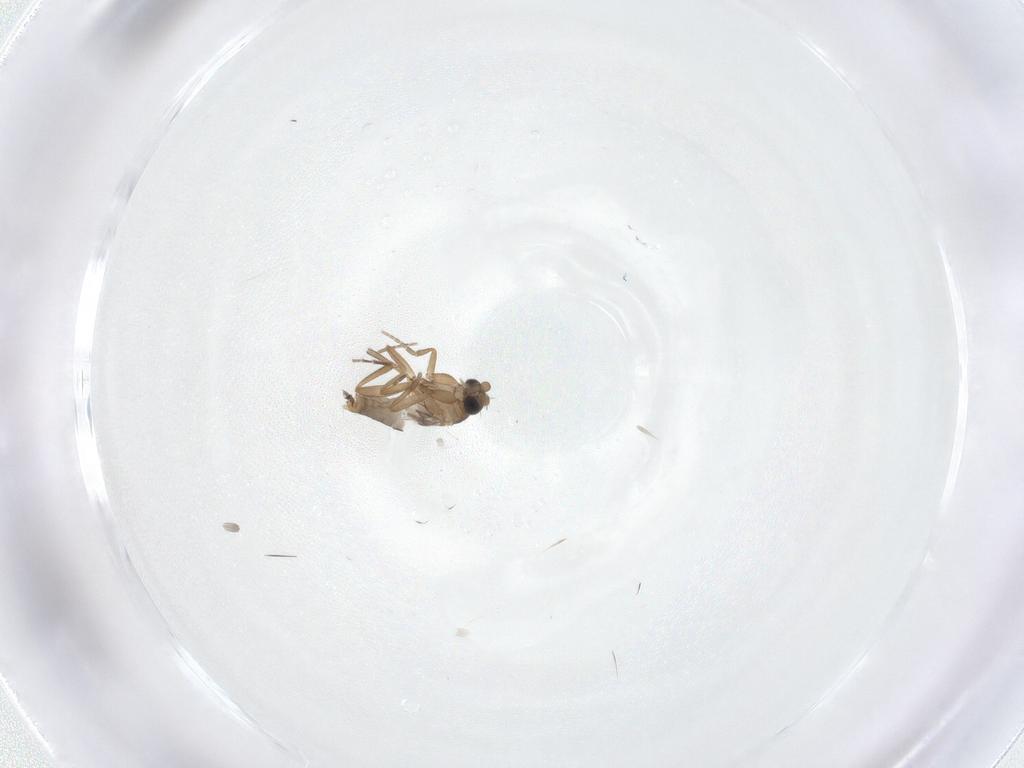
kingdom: Animalia
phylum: Arthropoda
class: Insecta
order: Diptera
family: Phoridae
